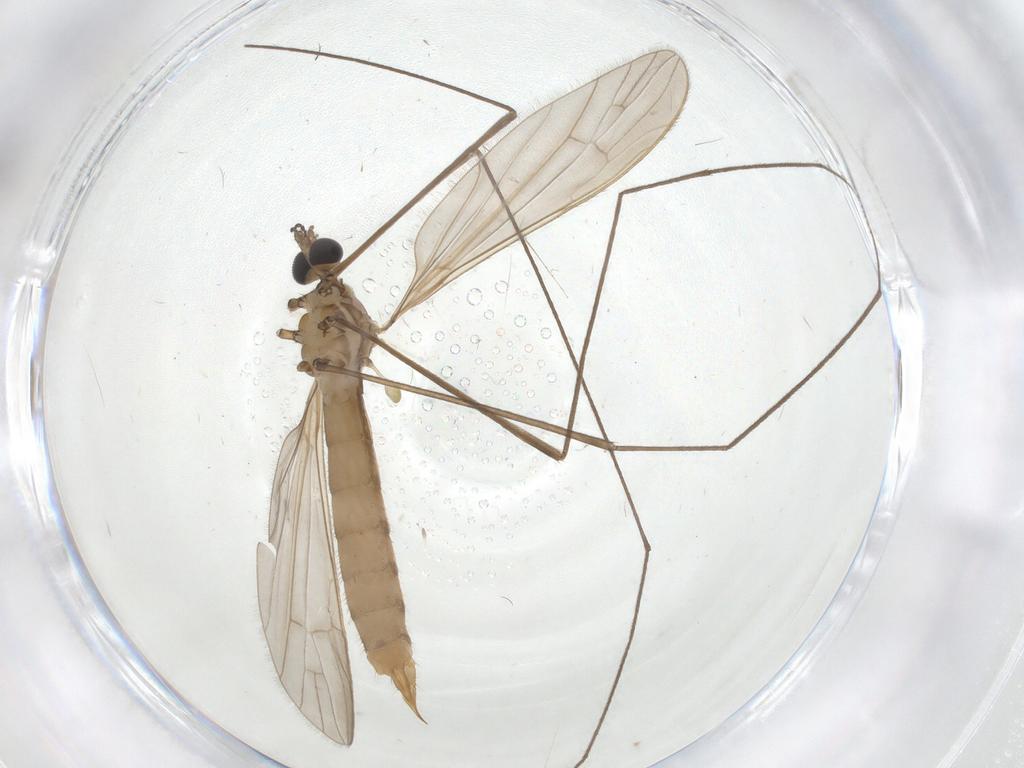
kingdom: Animalia
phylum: Arthropoda
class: Insecta
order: Diptera
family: Limoniidae
